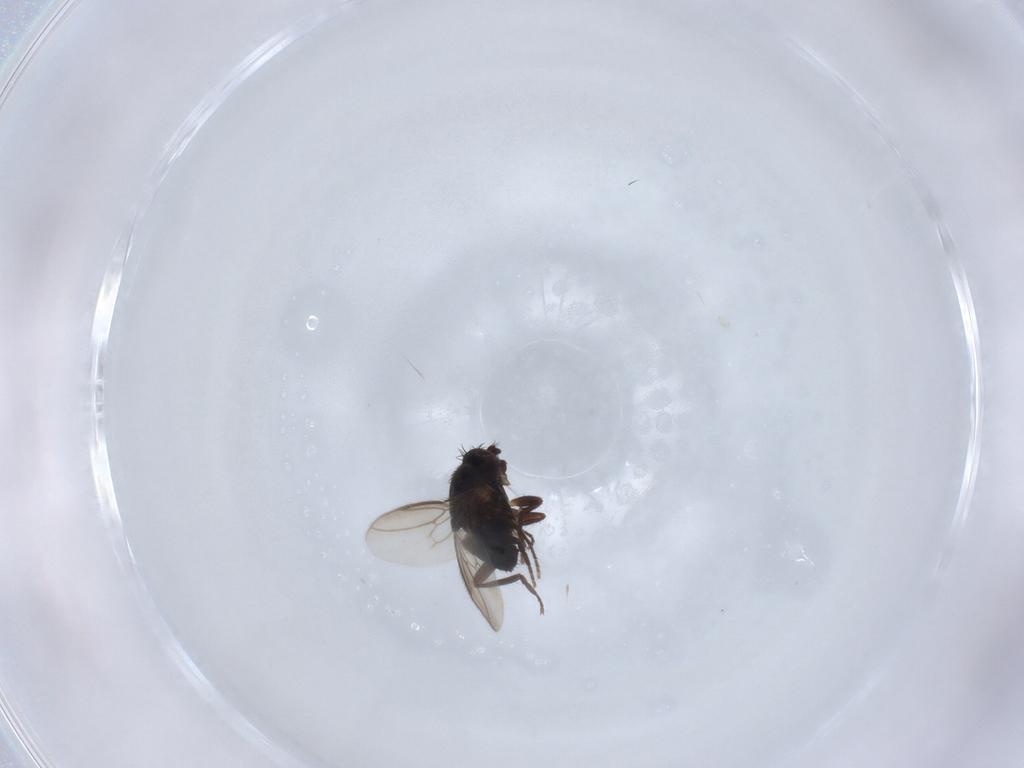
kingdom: Animalia
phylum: Arthropoda
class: Insecta
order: Diptera
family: Sphaeroceridae
